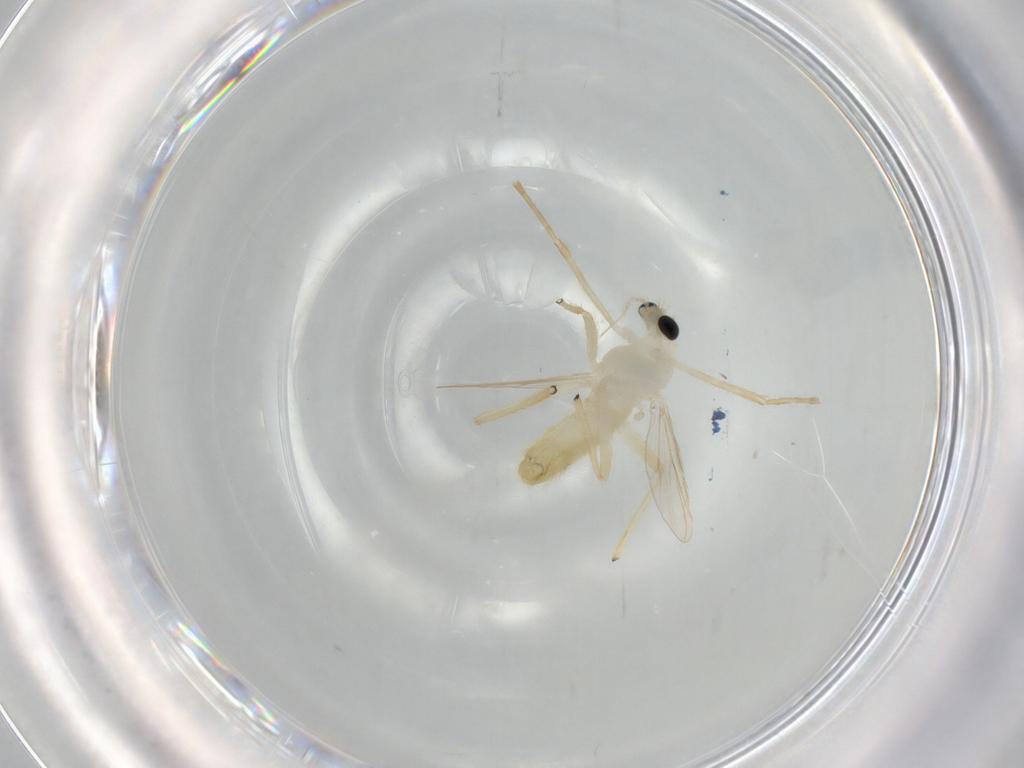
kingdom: Animalia
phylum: Arthropoda
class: Insecta
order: Diptera
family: Sciaridae
